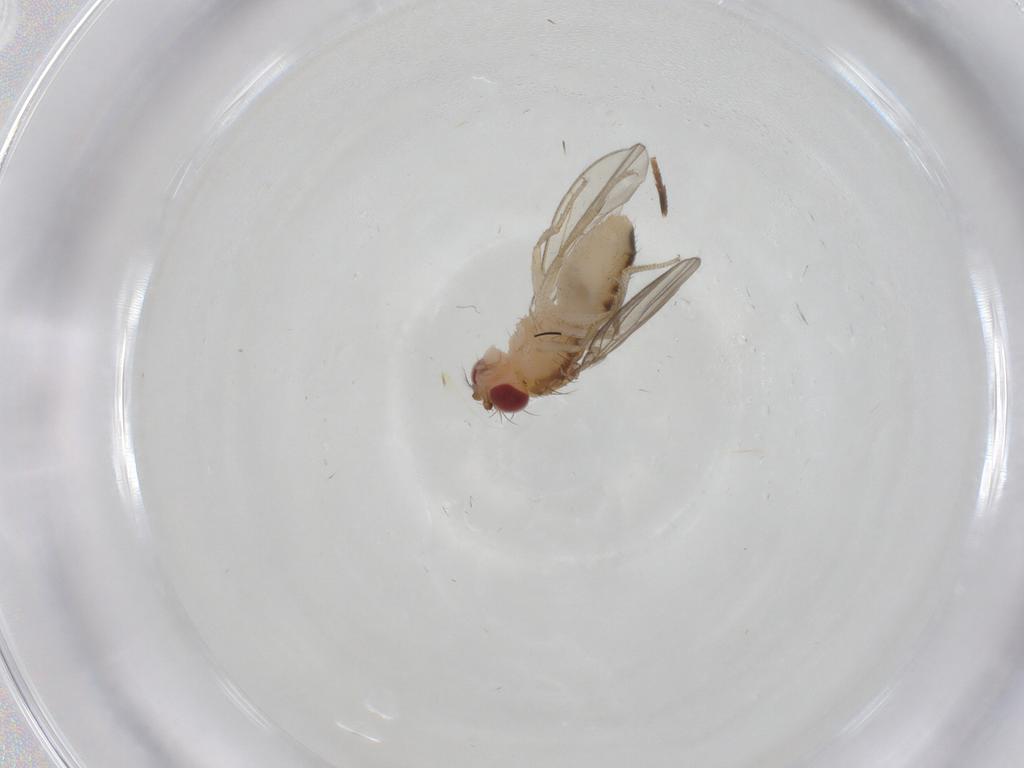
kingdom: Animalia
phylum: Arthropoda
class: Insecta
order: Diptera
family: Drosophilidae
